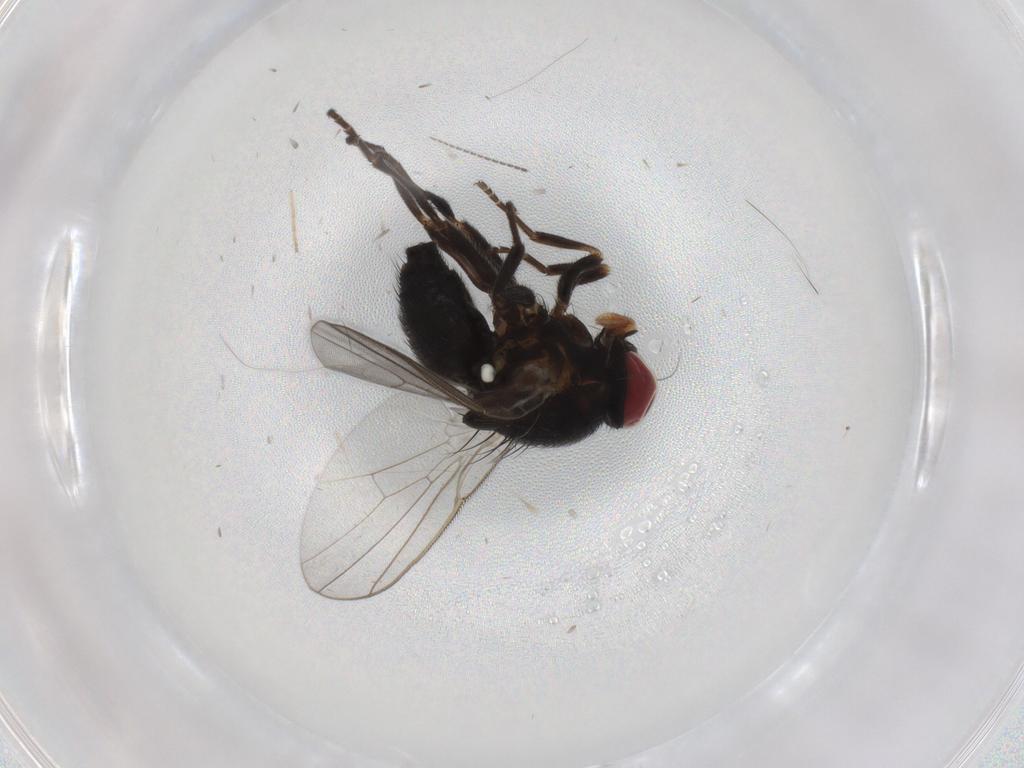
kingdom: Animalia
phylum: Arthropoda
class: Insecta
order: Diptera
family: Agromyzidae
